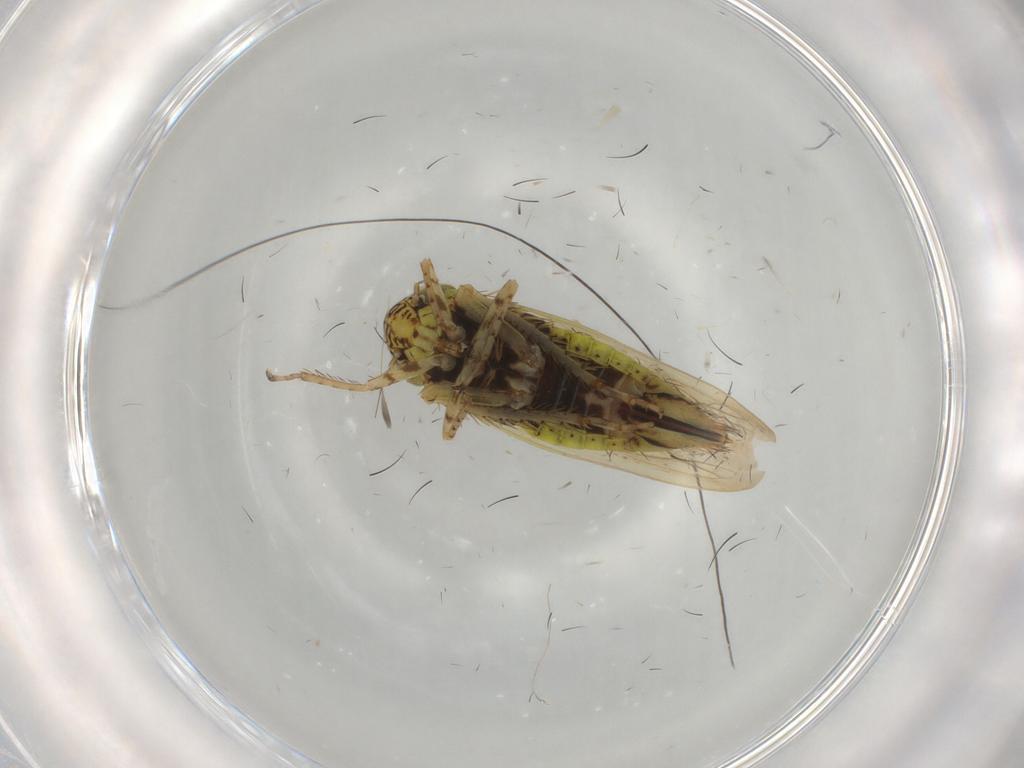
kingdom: Animalia
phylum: Arthropoda
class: Insecta
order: Hemiptera
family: Cicadellidae
